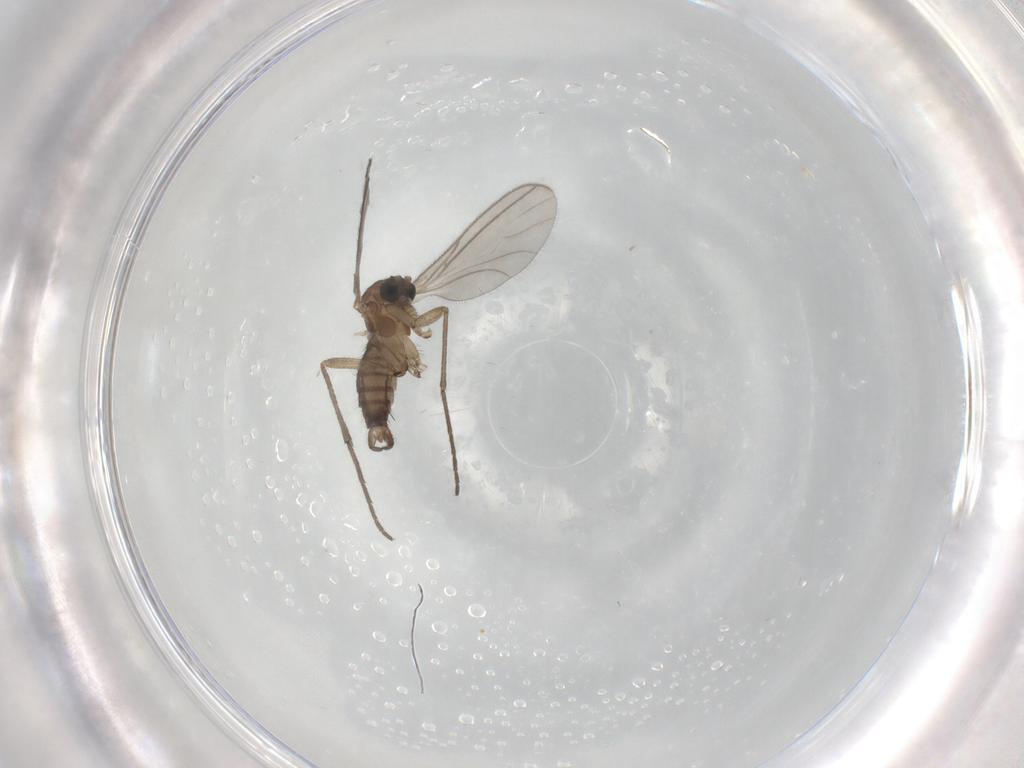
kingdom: Animalia
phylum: Arthropoda
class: Insecta
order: Diptera
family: Sciaridae
